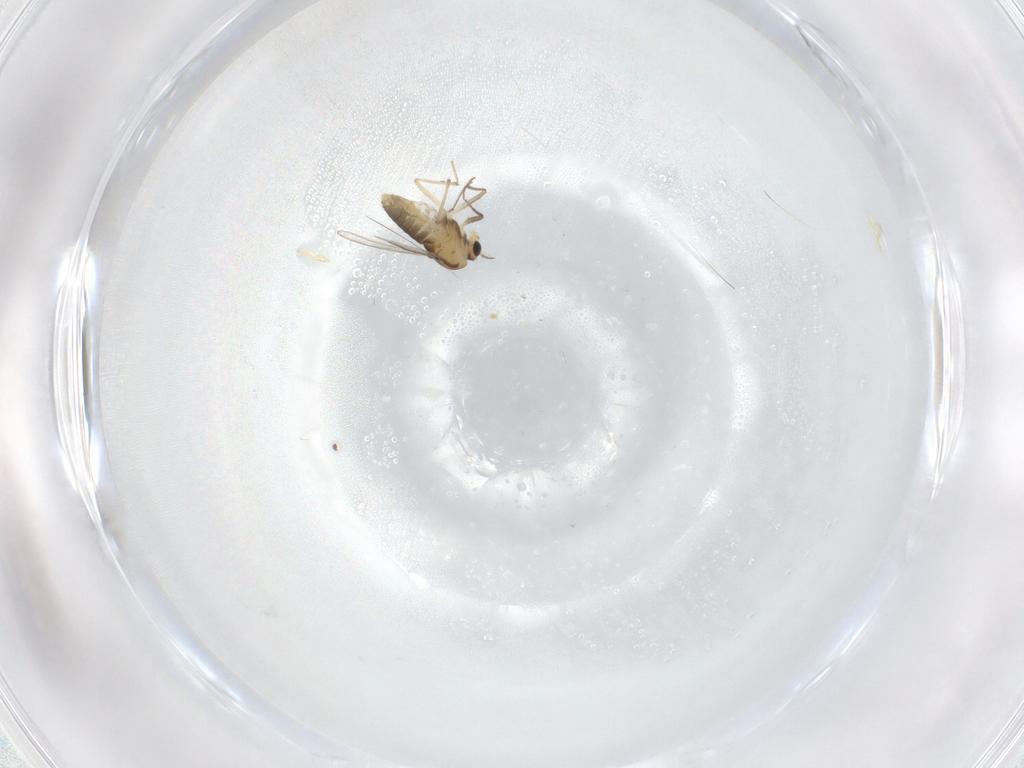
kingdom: Animalia
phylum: Arthropoda
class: Insecta
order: Diptera
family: Chironomidae
